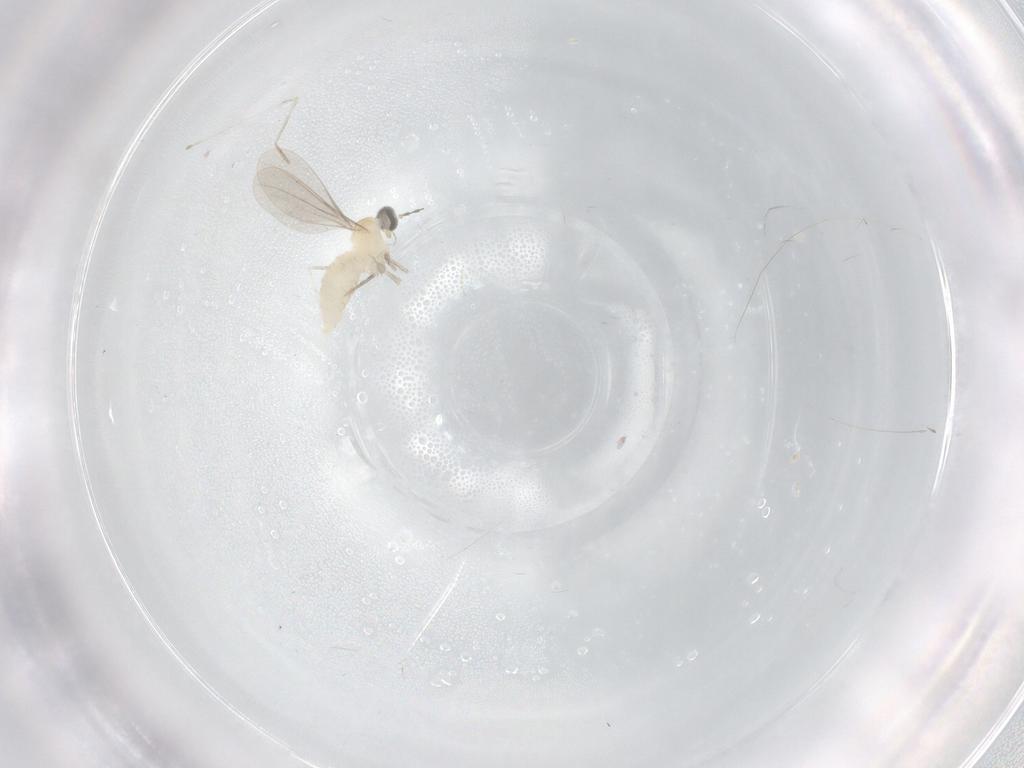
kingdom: Animalia
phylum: Arthropoda
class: Insecta
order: Diptera
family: Cecidomyiidae
